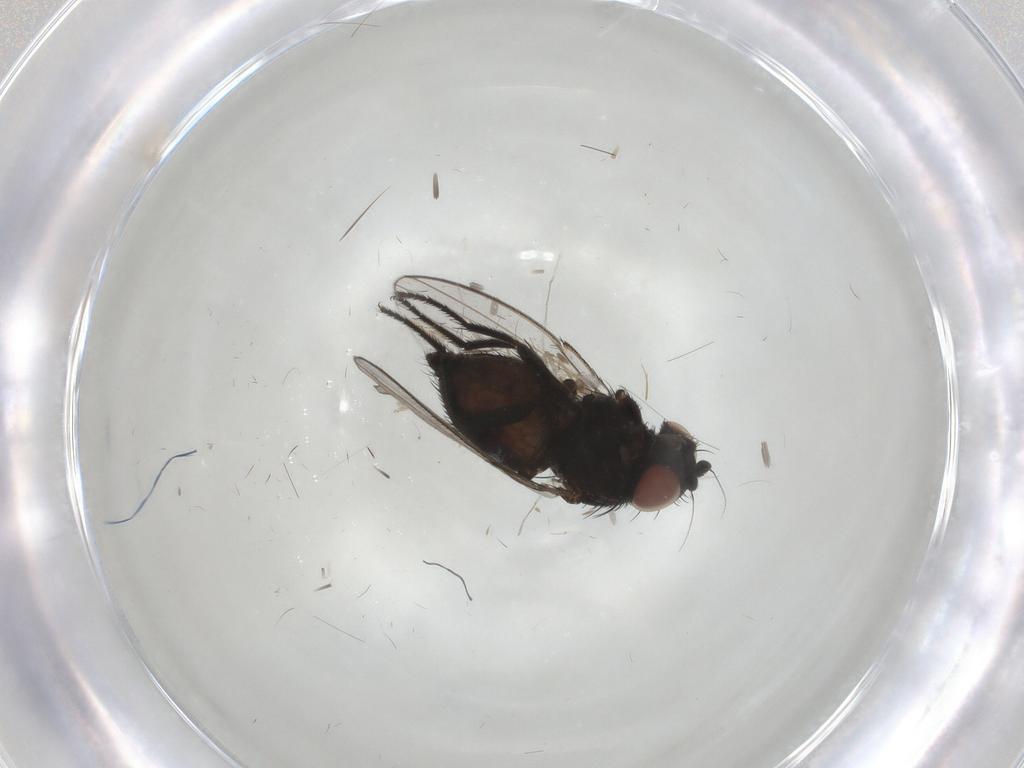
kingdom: Animalia
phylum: Arthropoda
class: Insecta
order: Diptera
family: Milichiidae
